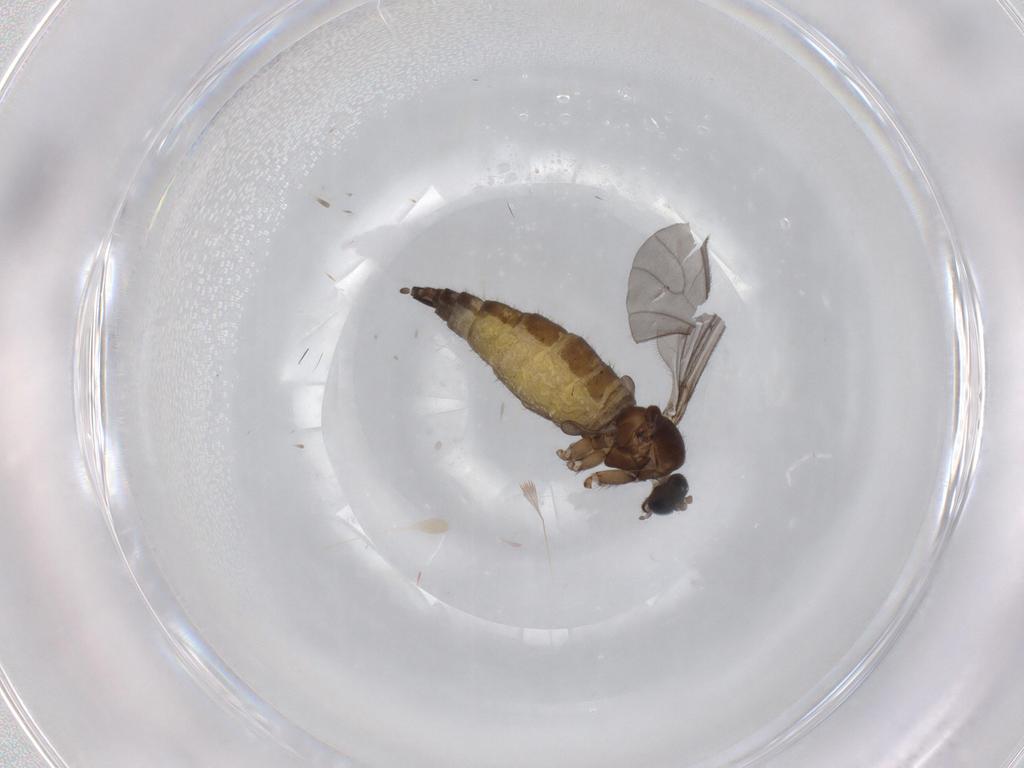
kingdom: Animalia
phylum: Arthropoda
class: Insecta
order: Diptera
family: Sciaridae
